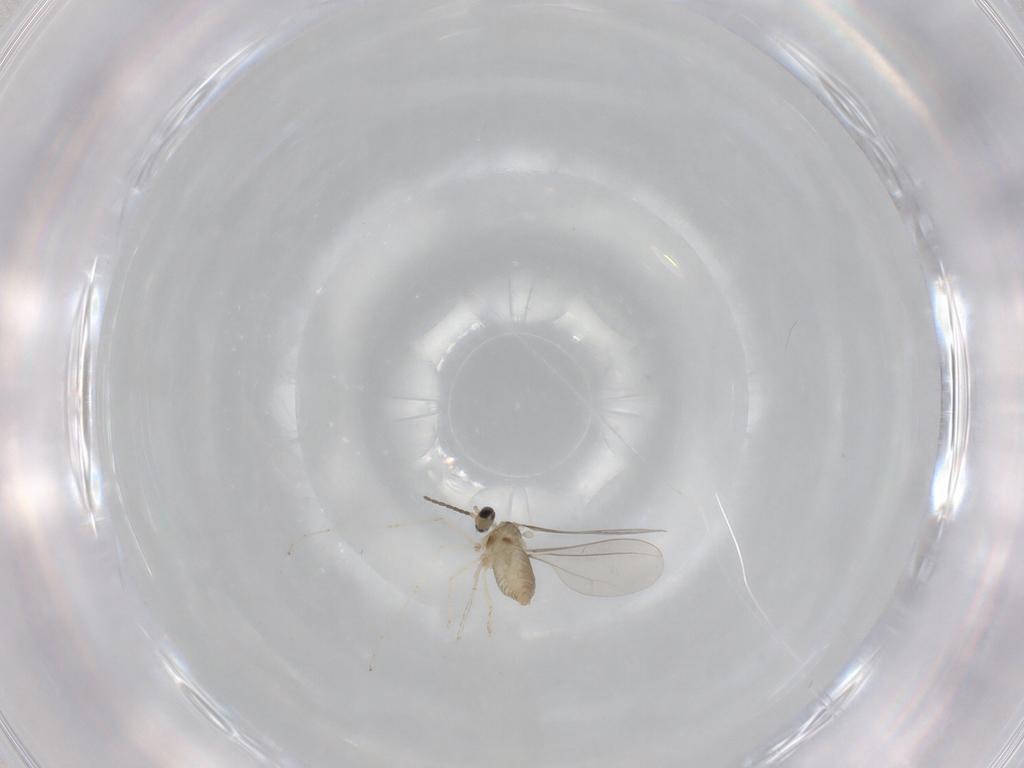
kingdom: Animalia
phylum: Arthropoda
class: Insecta
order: Diptera
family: Cecidomyiidae
